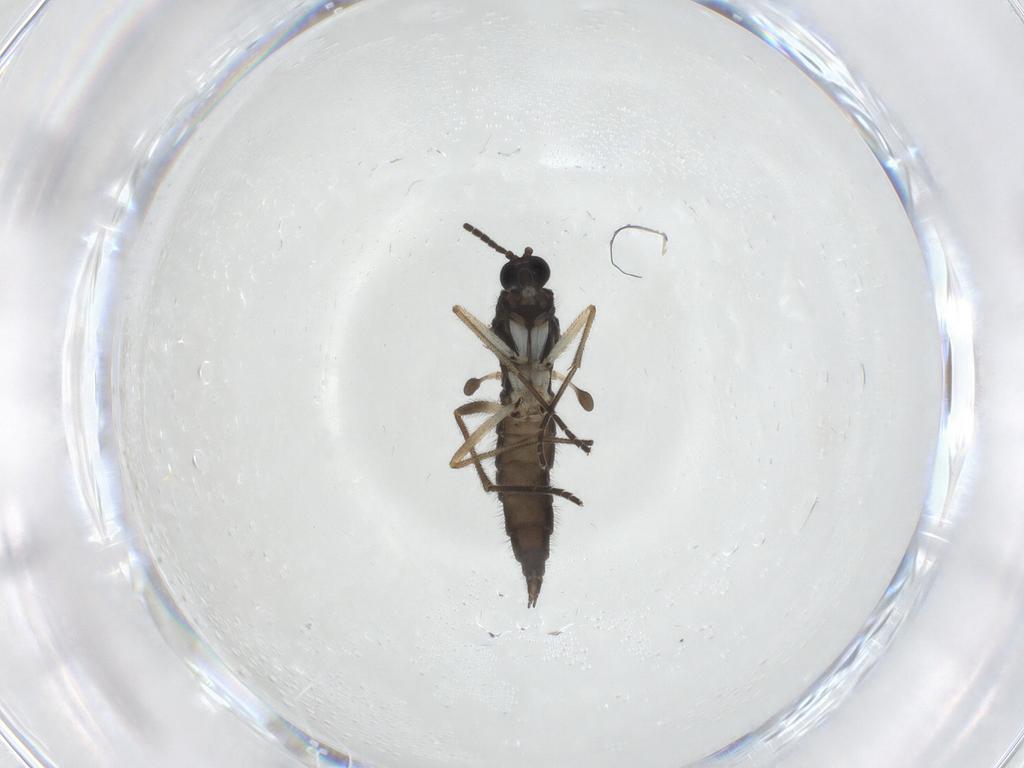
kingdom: Animalia
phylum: Arthropoda
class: Insecta
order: Diptera
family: Sciaridae
